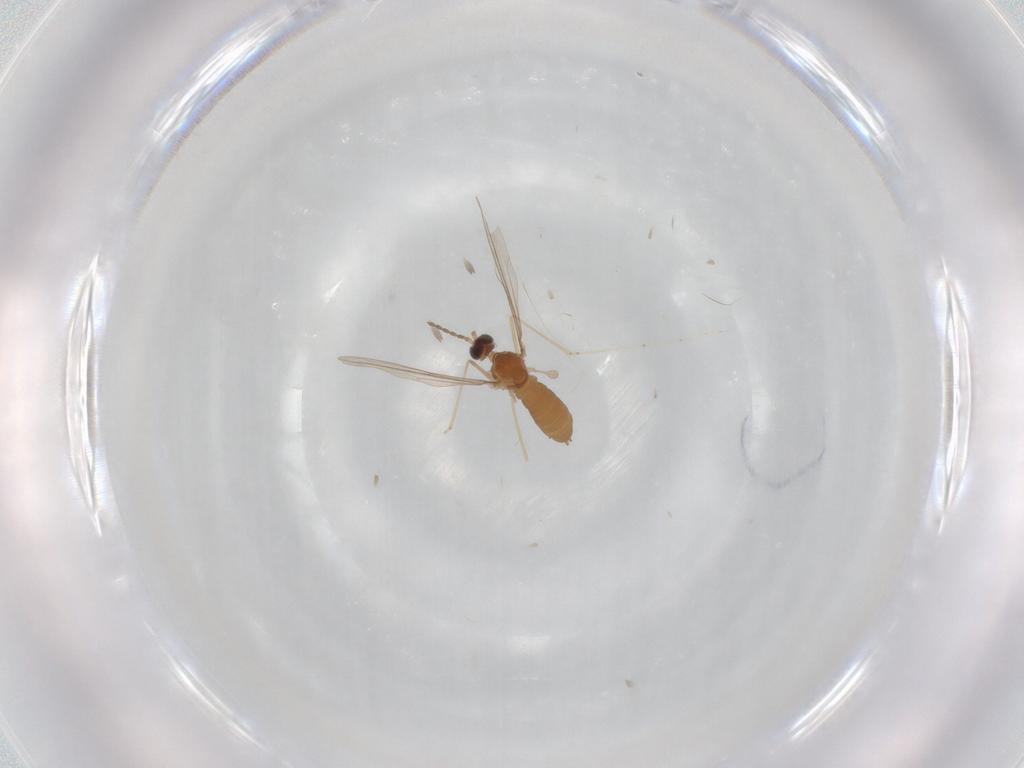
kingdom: Animalia
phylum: Arthropoda
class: Insecta
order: Diptera
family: Cecidomyiidae
